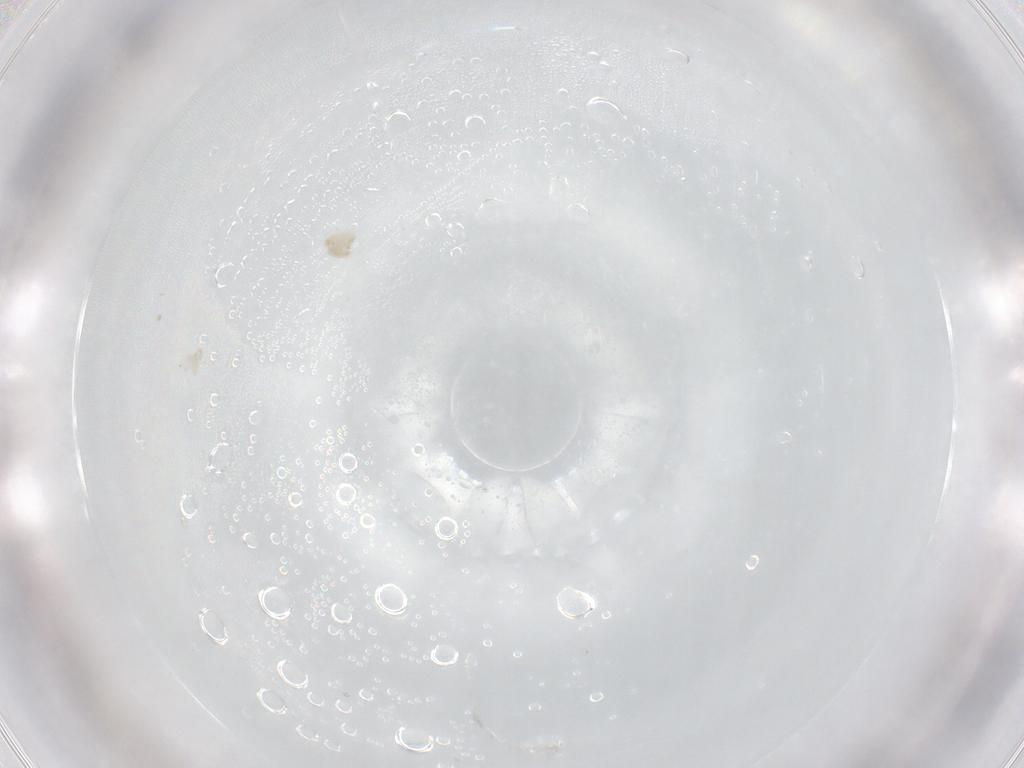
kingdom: Animalia
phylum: Arthropoda
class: Arachnida
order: Trombidiformes
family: Eupodidae
